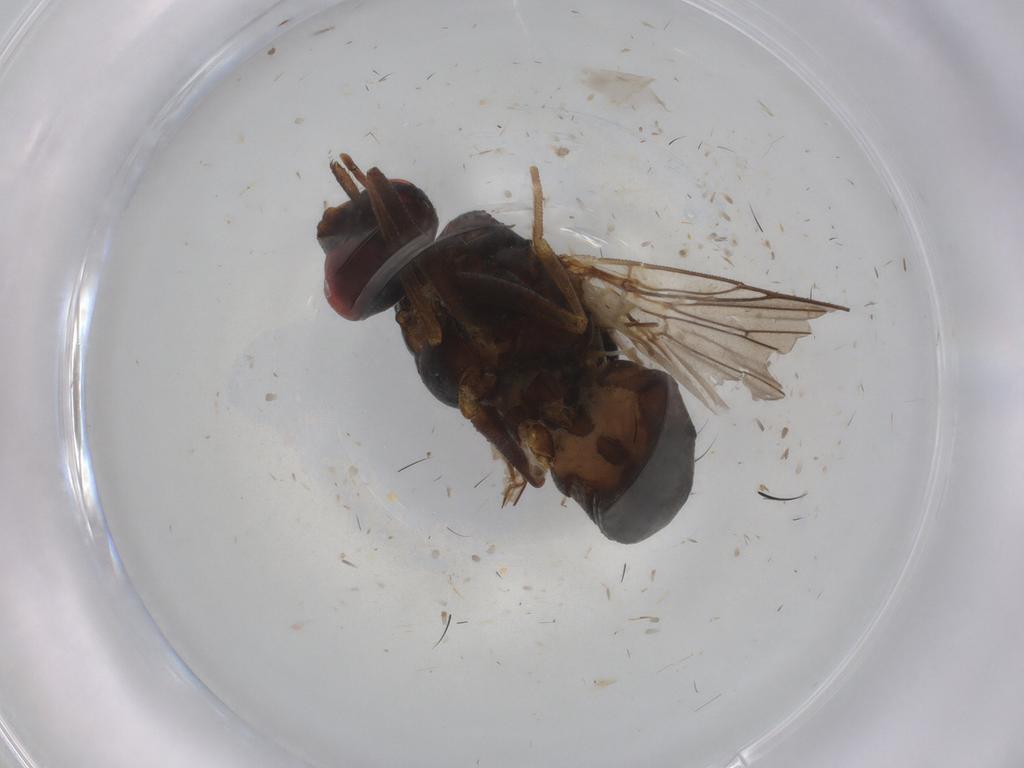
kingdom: Animalia
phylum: Arthropoda
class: Insecta
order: Diptera
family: Glossinidae
